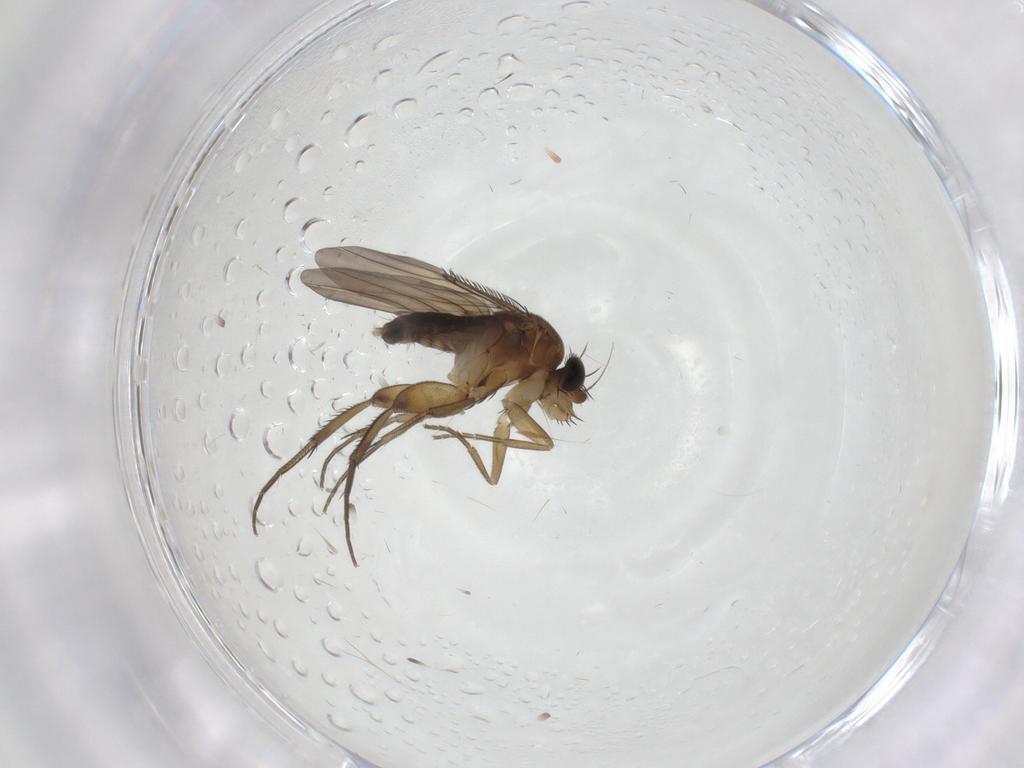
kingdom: Animalia
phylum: Arthropoda
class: Insecta
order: Diptera
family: Phoridae
